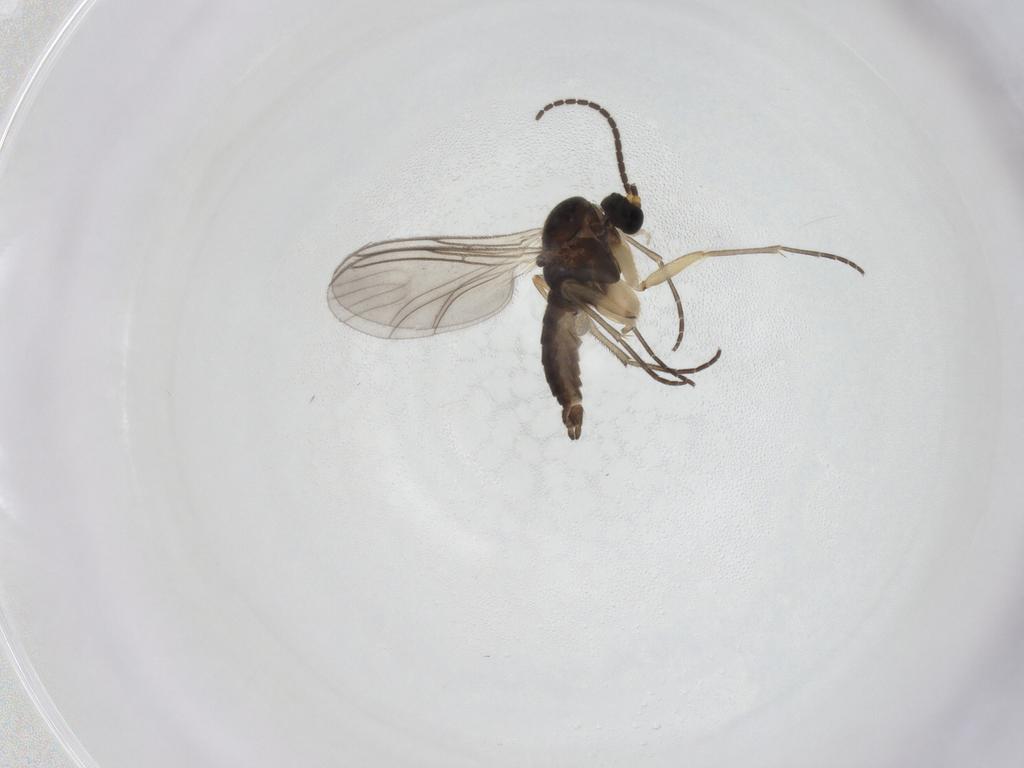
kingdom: Animalia
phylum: Arthropoda
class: Insecta
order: Diptera
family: Sciaridae
